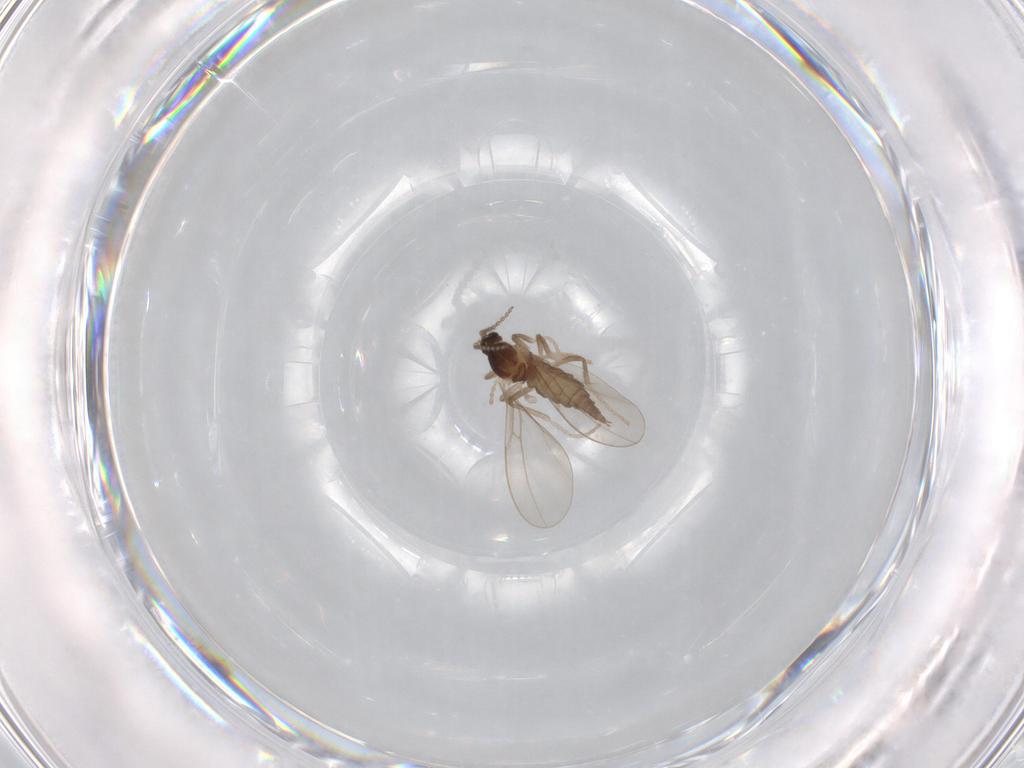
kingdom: Animalia
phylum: Arthropoda
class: Insecta
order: Diptera
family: Cecidomyiidae
